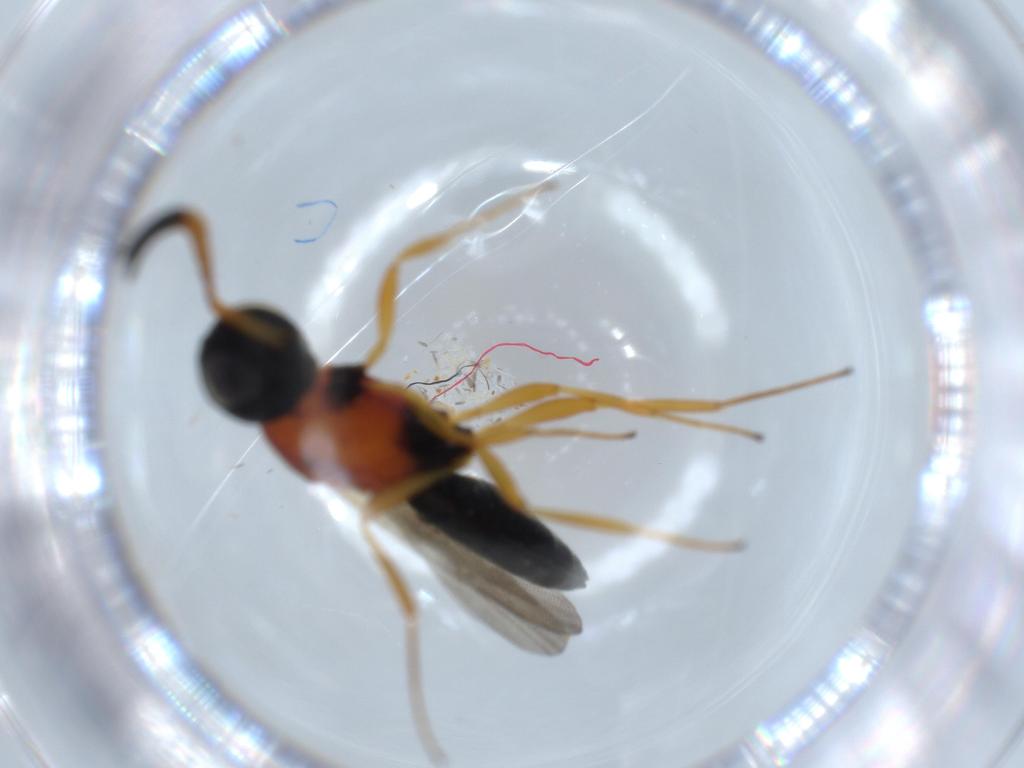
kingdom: Animalia
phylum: Arthropoda
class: Insecta
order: Hymenoptera
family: Scelionidae
